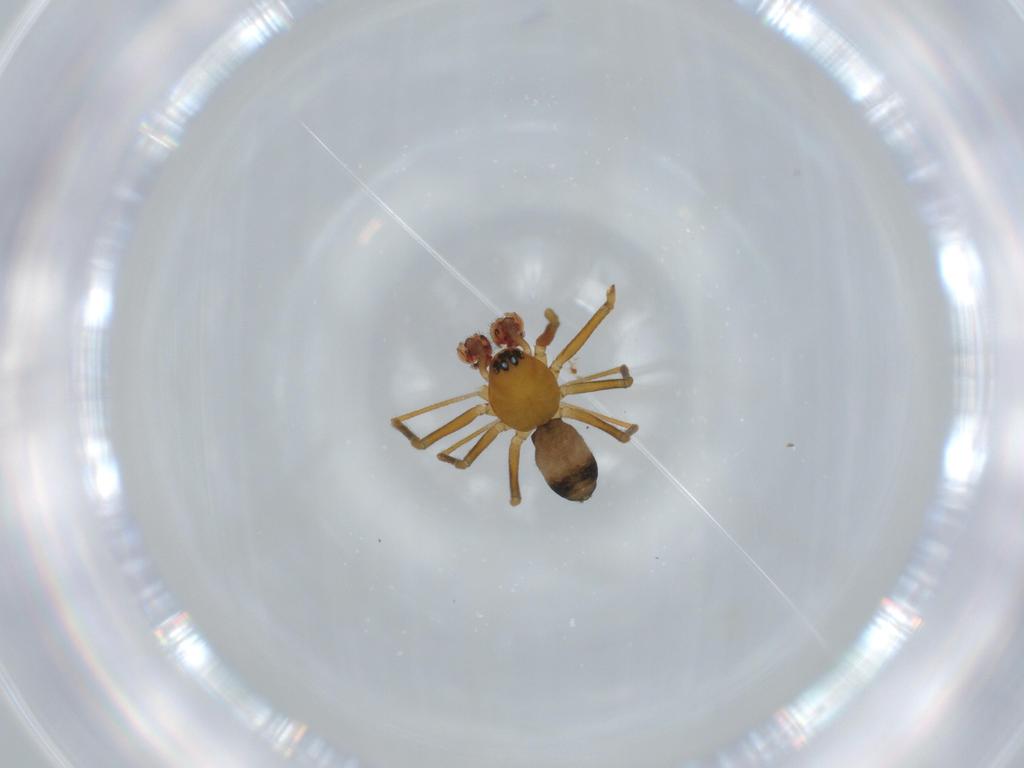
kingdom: Animalia
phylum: Arthropoda
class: Arachnida
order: Araneae
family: Linyphiidae
